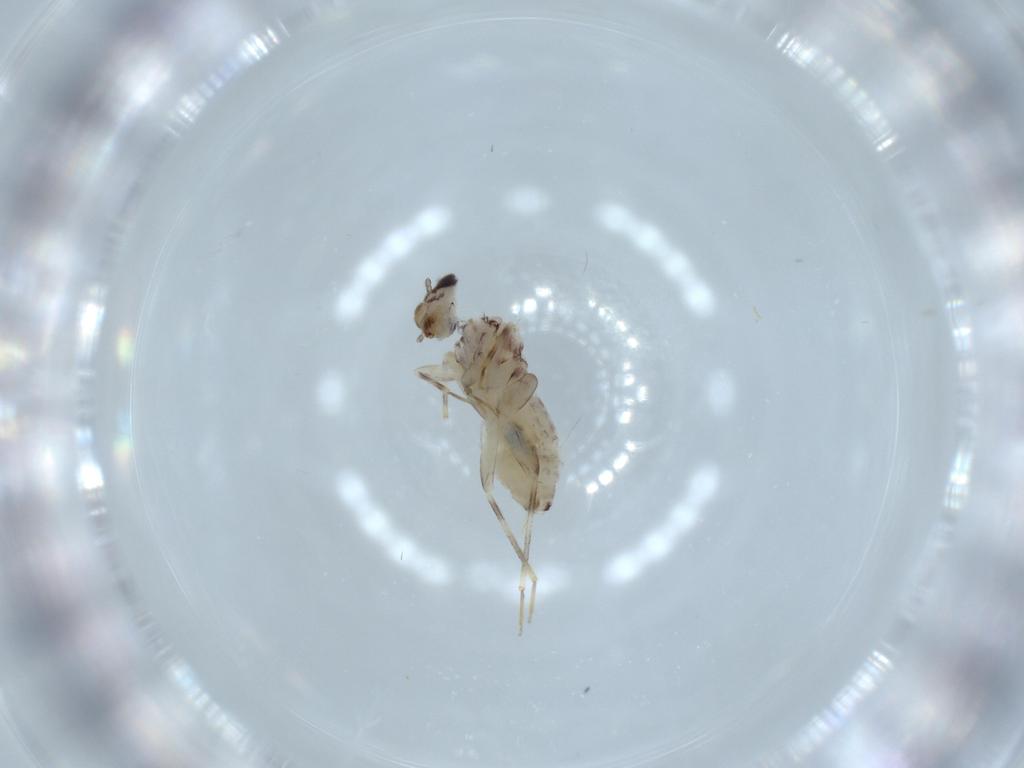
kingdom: Animalia
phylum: Arthropoda
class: Insecta
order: Psocodea
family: Lepidopsocidae
